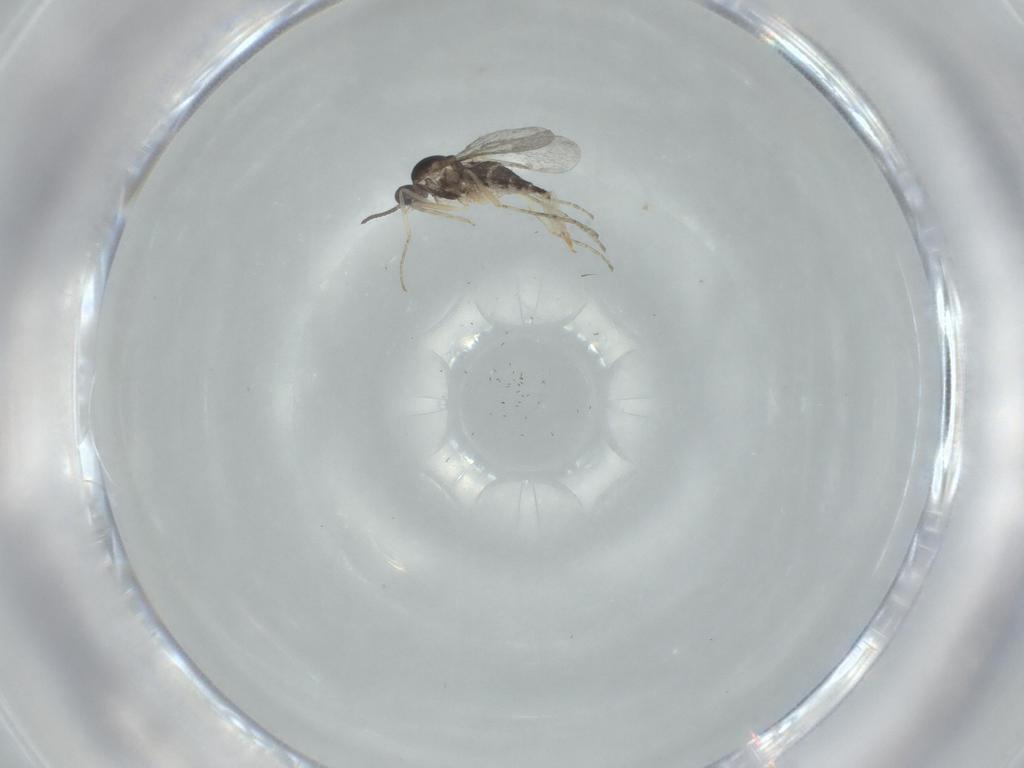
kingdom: Animalia
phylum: Arthropoda
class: Insecta
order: Diptera
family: Cecidomyiidae
